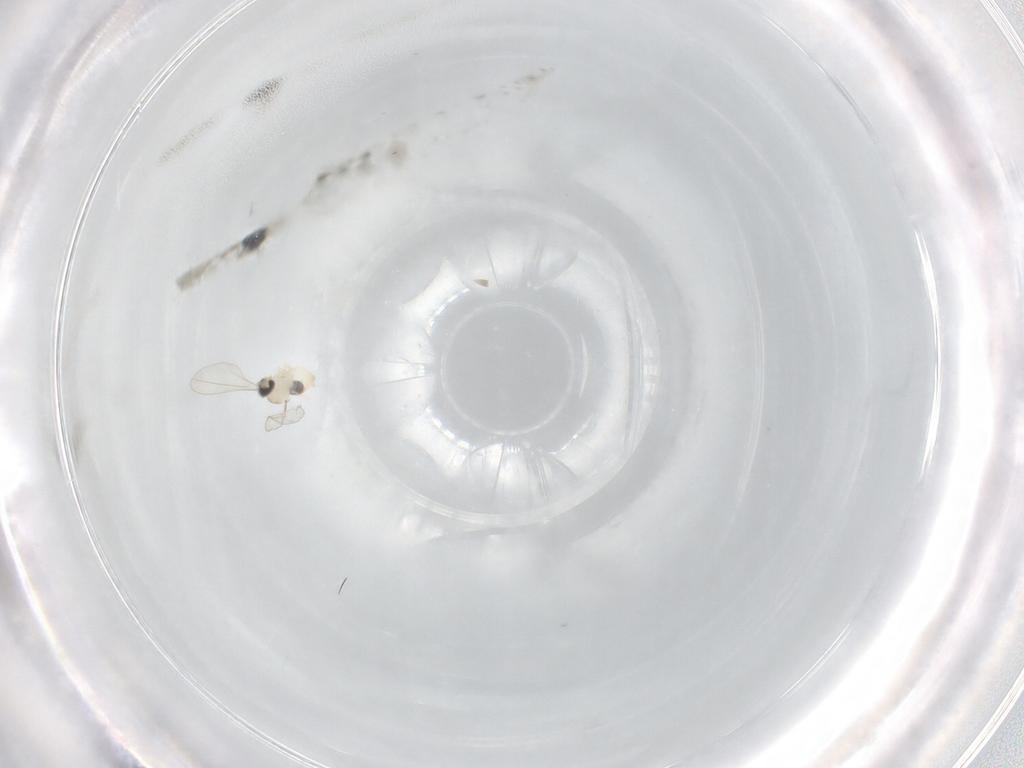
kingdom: Animalia
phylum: Arthropoda
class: Insecta
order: Diptera
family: Cecidomyiidae
